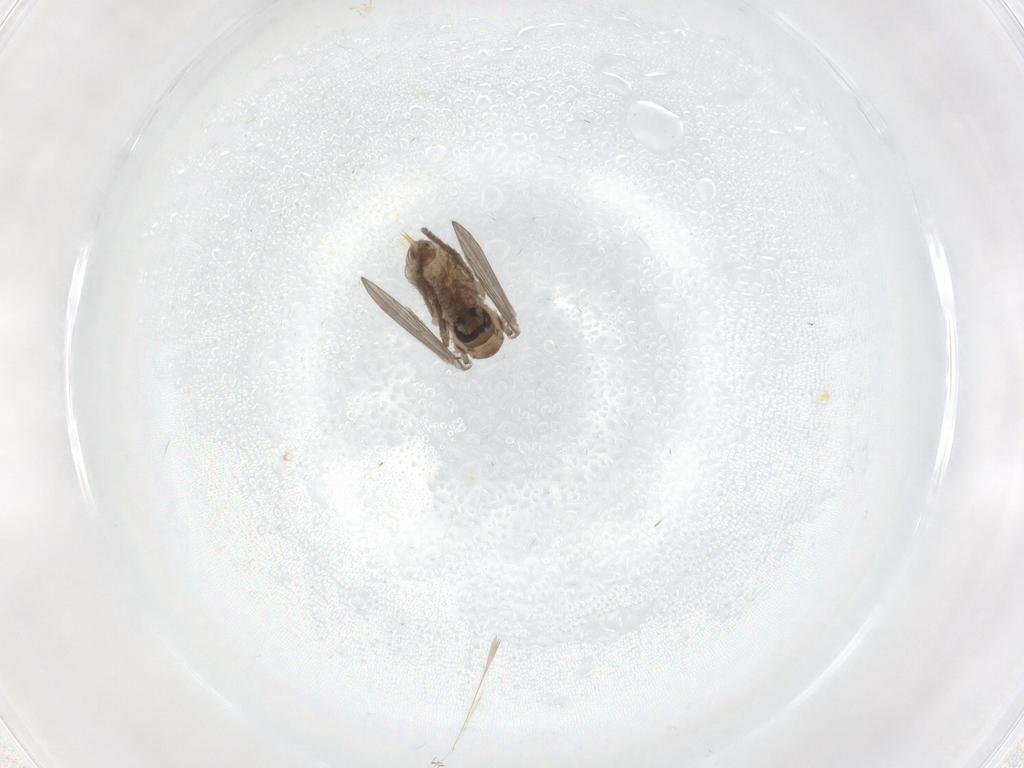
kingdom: Animalia
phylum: Arthropoda
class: Insecta
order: Diptera
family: Psychodidae
